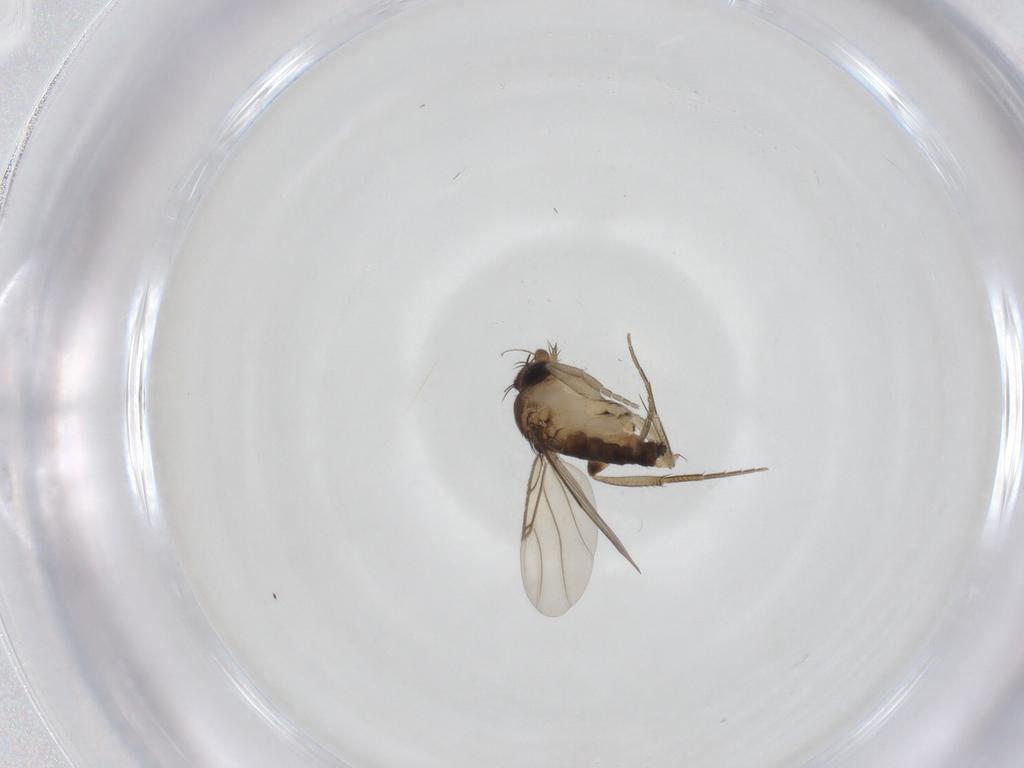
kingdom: Animalia
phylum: Arthropoda
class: Insecta
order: Diptera
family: Phoridae
